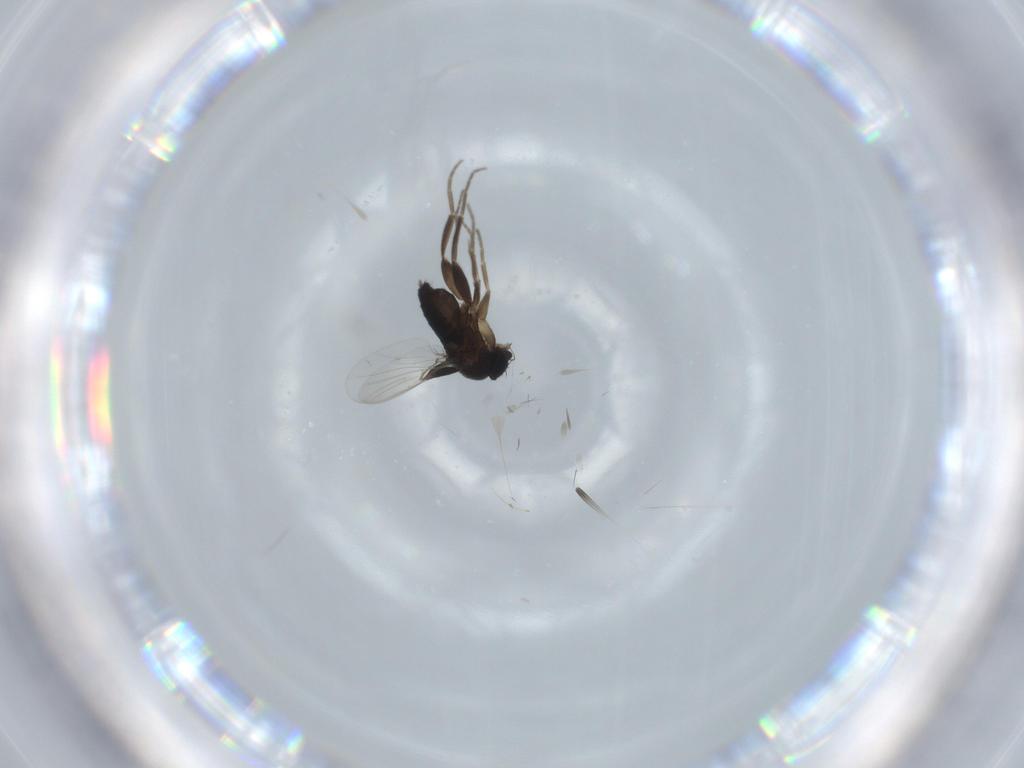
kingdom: Animalia
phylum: Arthropoda
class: Insecta
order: Diptera
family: Phoridae
